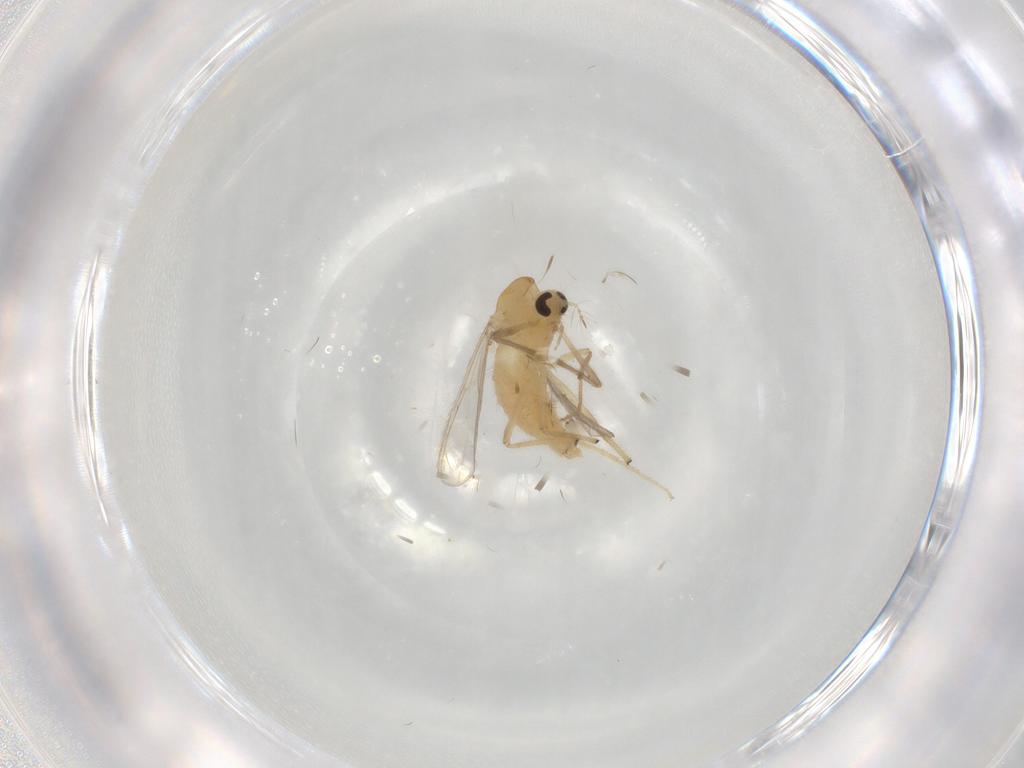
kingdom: Animalia
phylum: Arthropoda
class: Insecta
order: Diptera
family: Chironomidae
